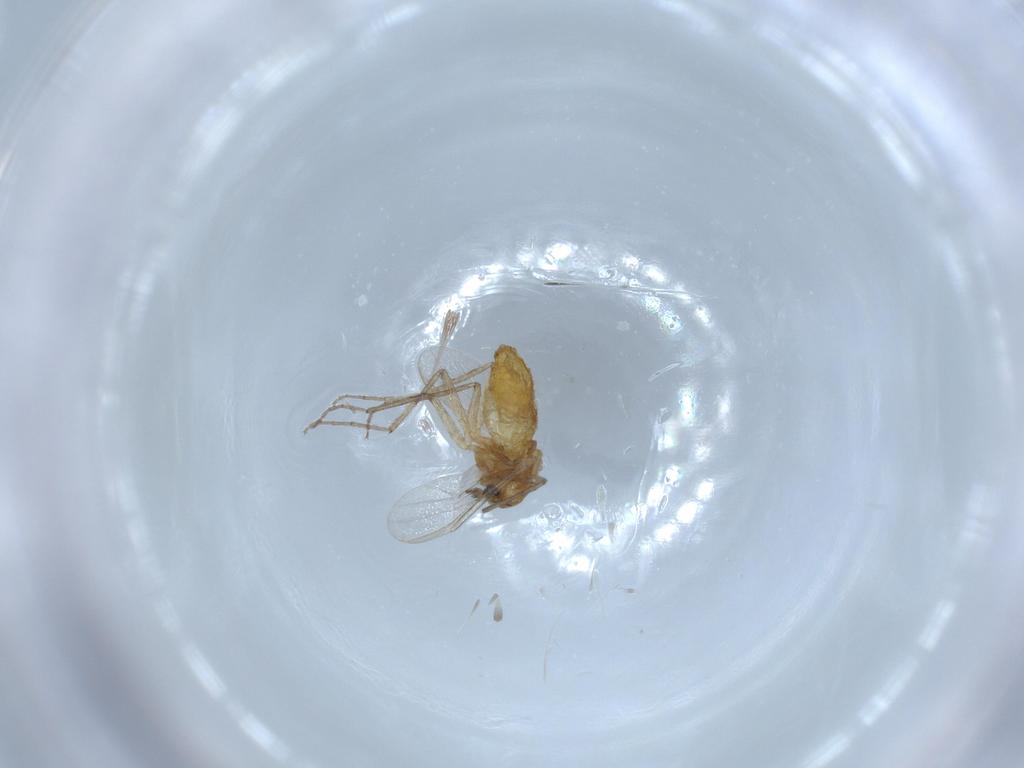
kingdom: Animalia
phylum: Arthropoda
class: Insecta
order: Diptera
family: Chironomidae
